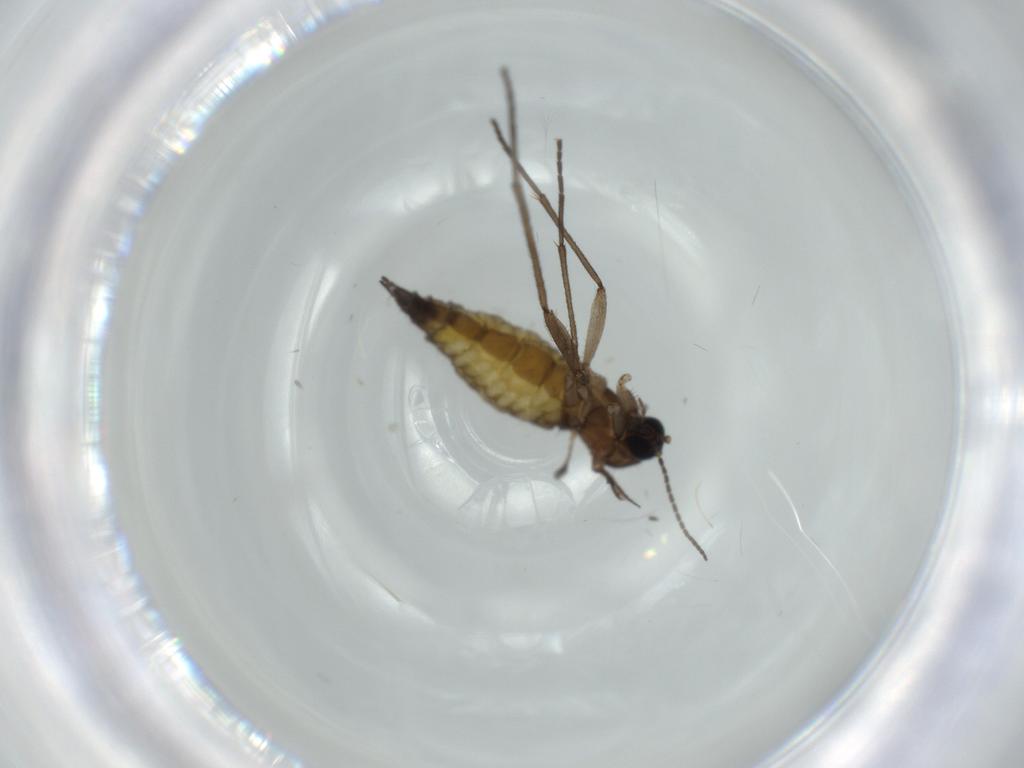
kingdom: Animalia
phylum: Arthropoda
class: Insecta
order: Diptera
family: Sciaridae
